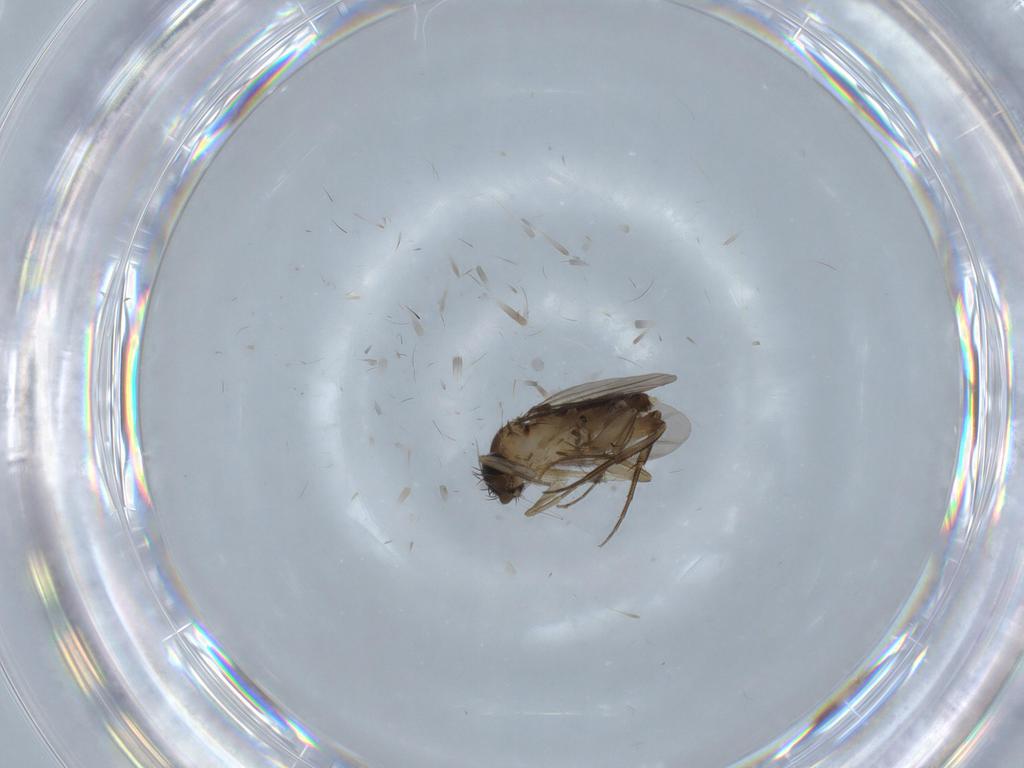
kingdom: Animalia
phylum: Arthropoda
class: Insecta
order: Diptera
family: Phoridae
